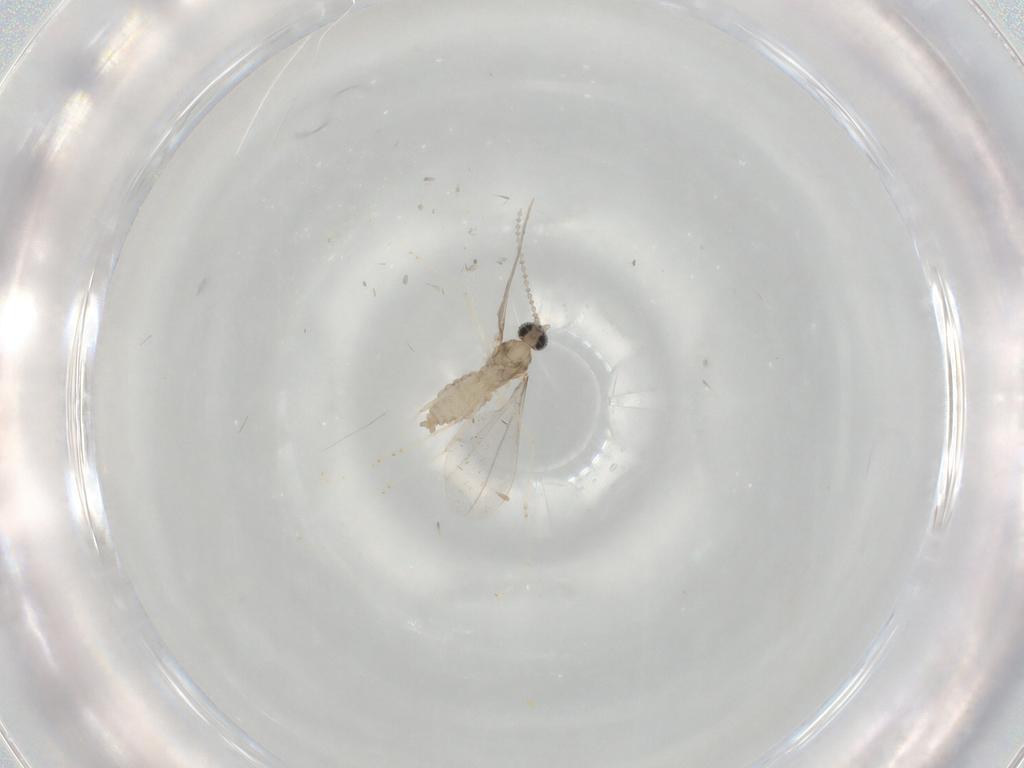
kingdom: Animalia
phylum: Arthropoda
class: Insecta
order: Diptera
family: Cecidomyiidae
